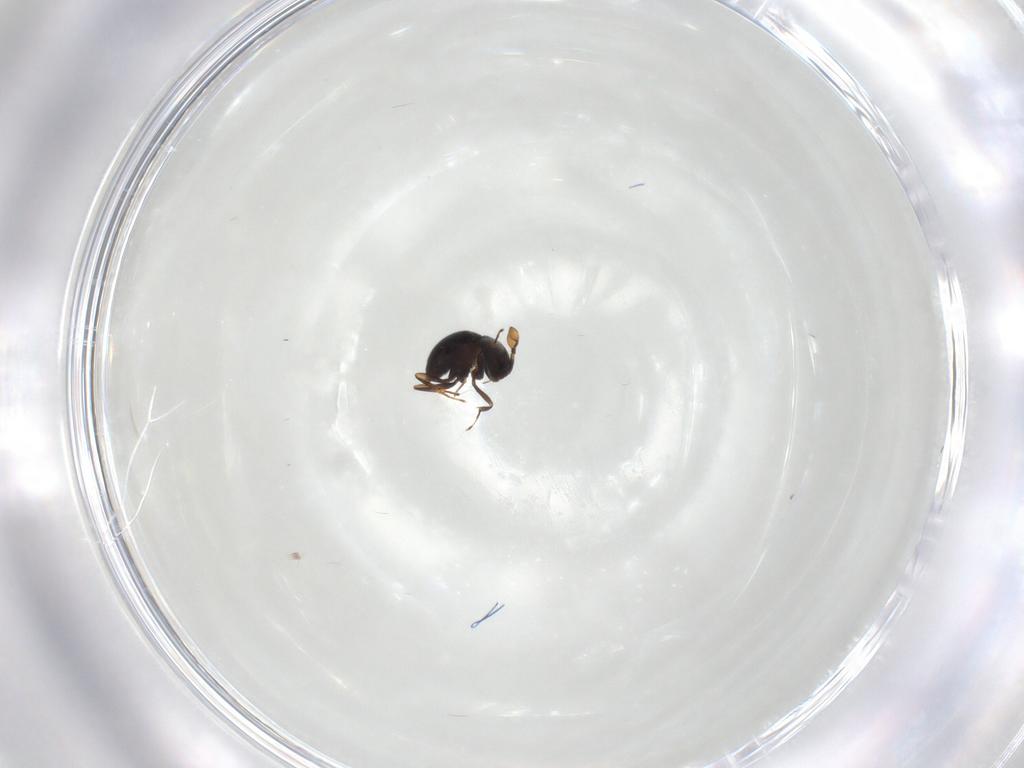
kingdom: Animalia
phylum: Arthropoda
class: Insecta
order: Hymenoptera
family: Scelionidae
